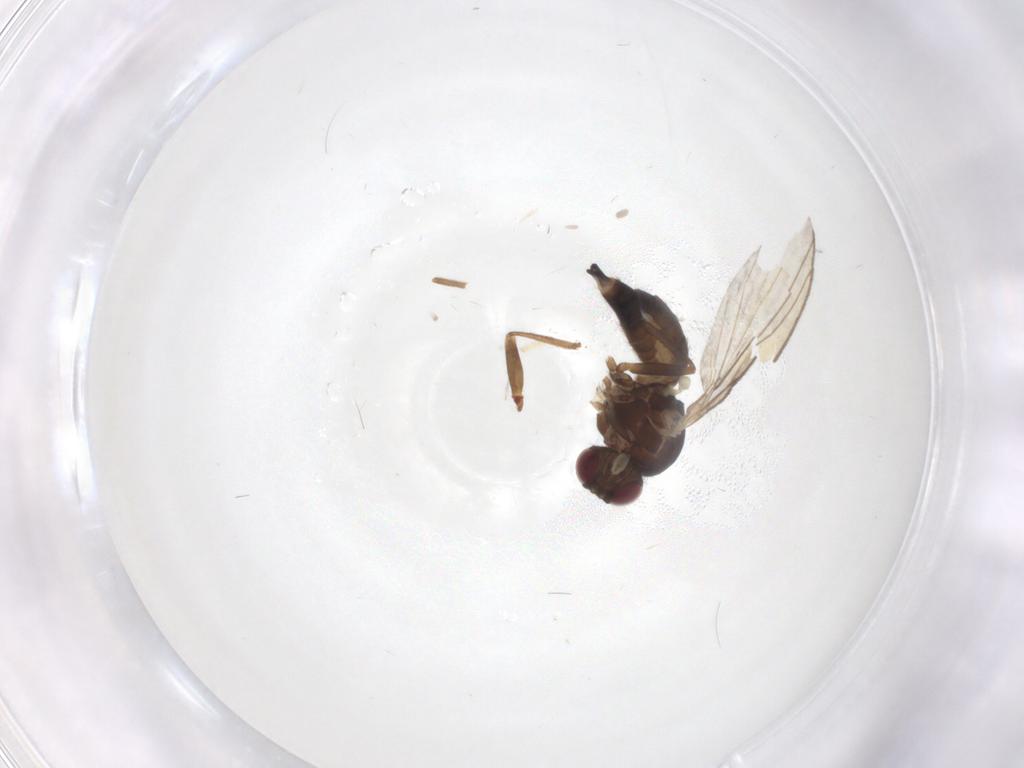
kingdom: Animalia
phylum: Arthropoda
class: Insecta
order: Diptera
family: Agromyzidae
